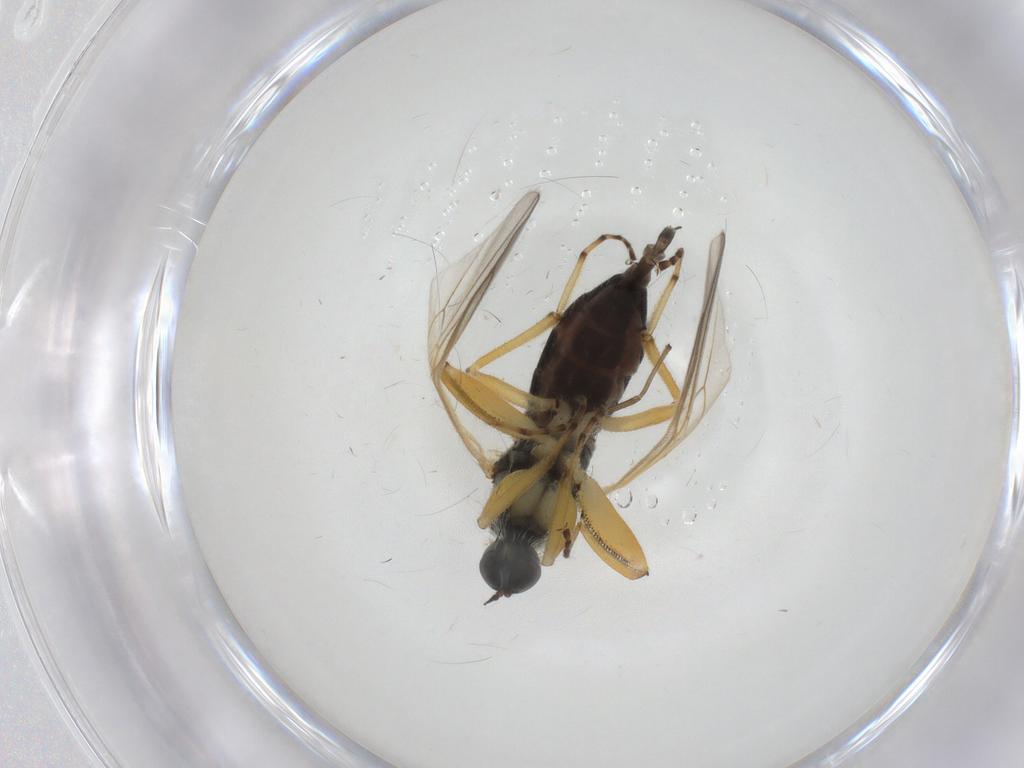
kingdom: Animalia
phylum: Arthropoda
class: Insecta
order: Diptera
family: Hybotidae
